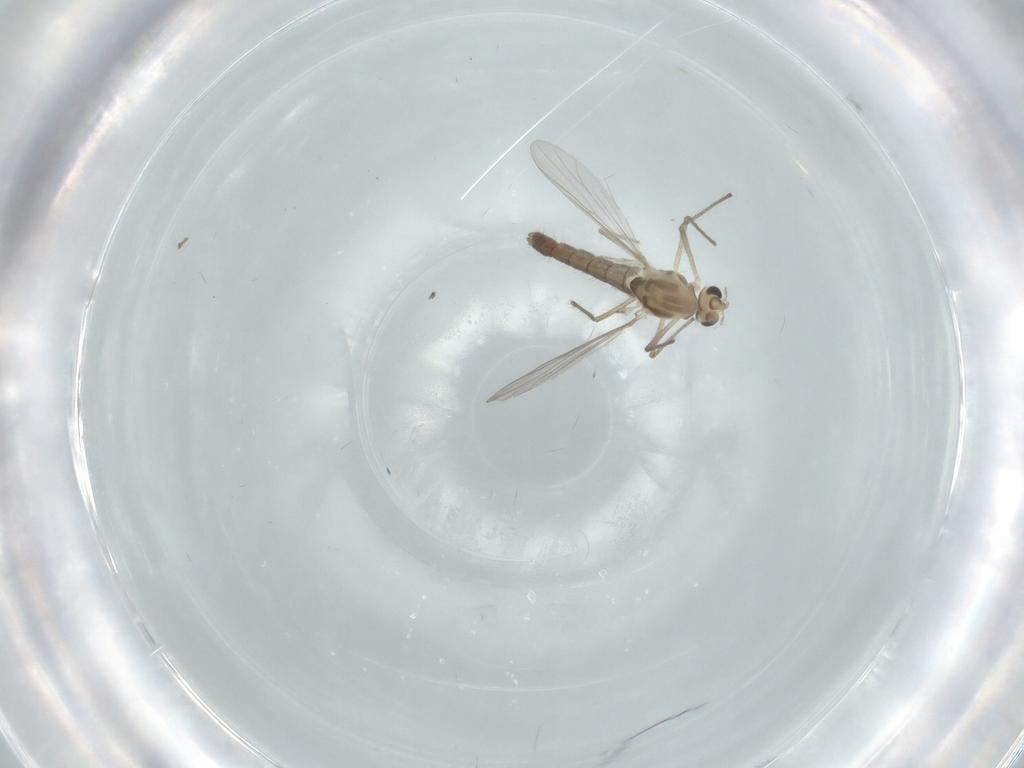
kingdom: Animalia
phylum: Arthropoda
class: Insecta
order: Diptera
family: Chironomidae
